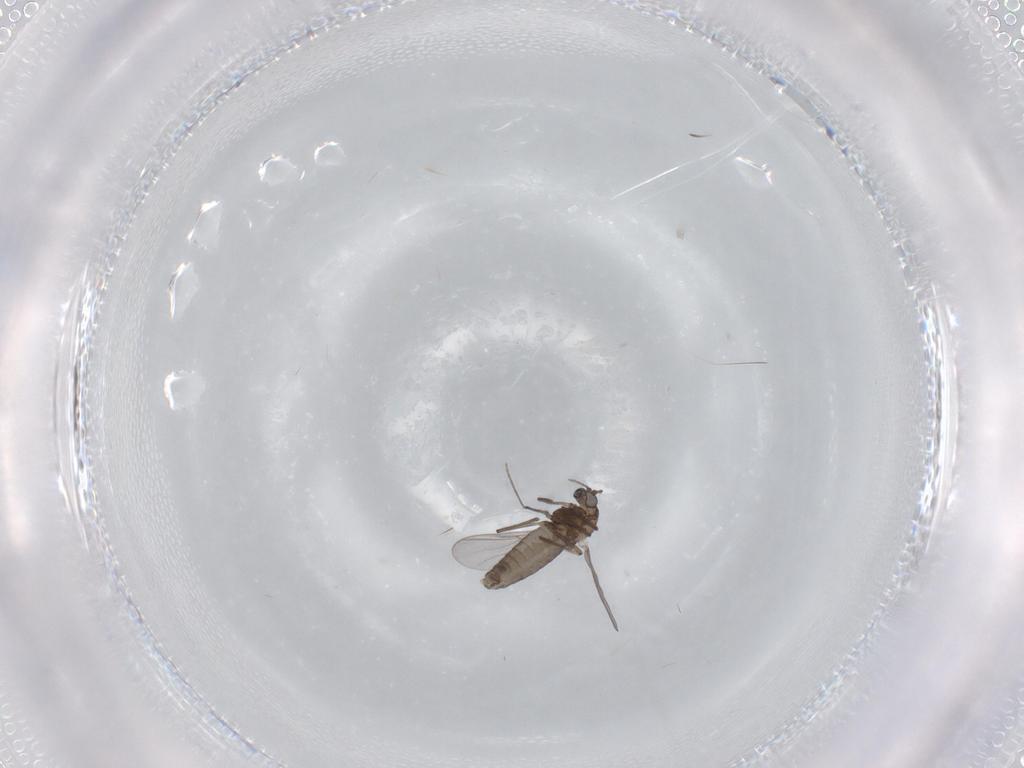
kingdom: Animalia
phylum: Arthropoda
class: Insecta
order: Diptera
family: Chironomidae
